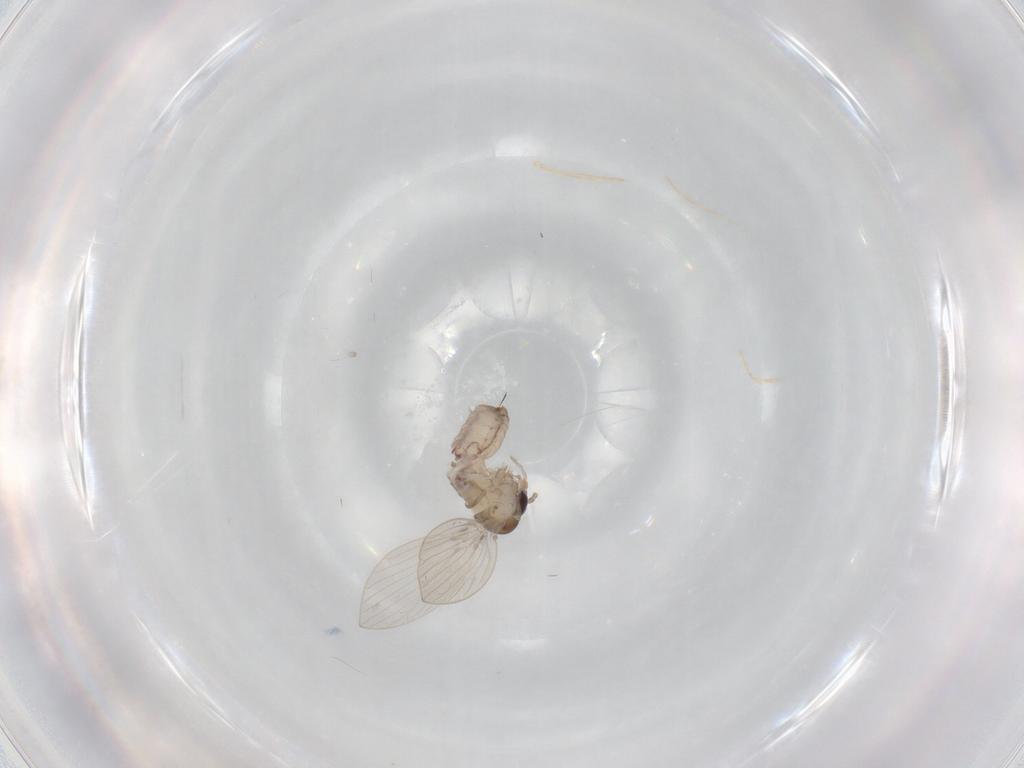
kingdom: Animalia
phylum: Arthropoda
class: Insecta
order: Diptera
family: Psychodidae
